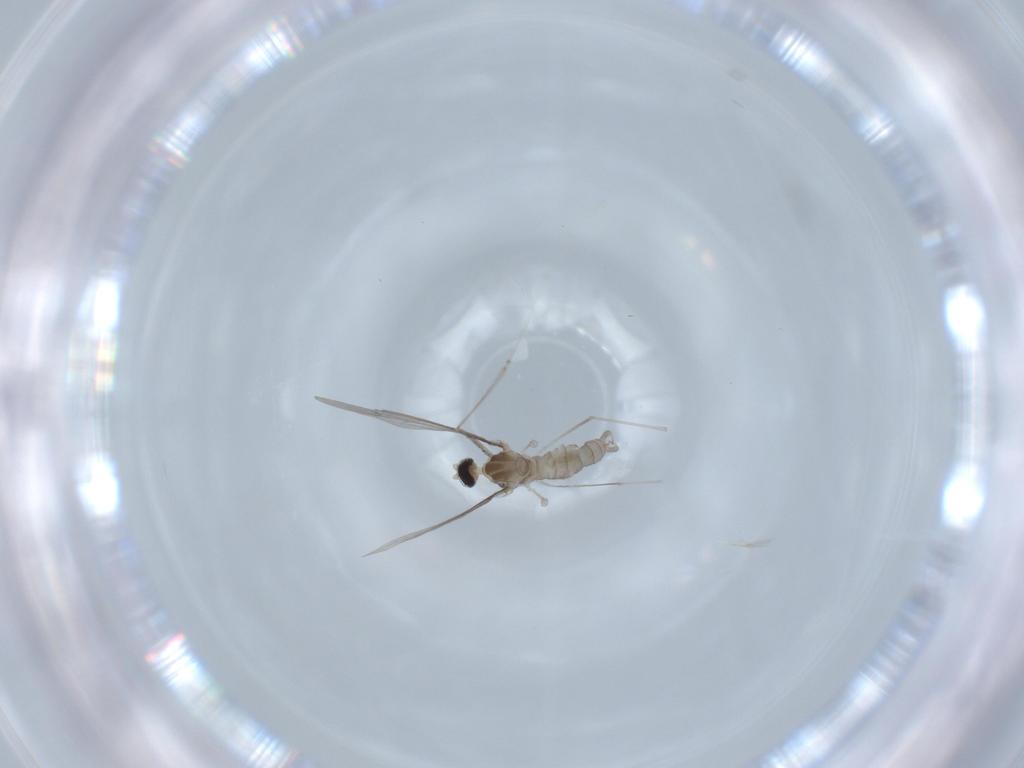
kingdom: Animalia
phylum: Arthropoda
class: Insecta
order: Diptera
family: Cecidomyiidae
